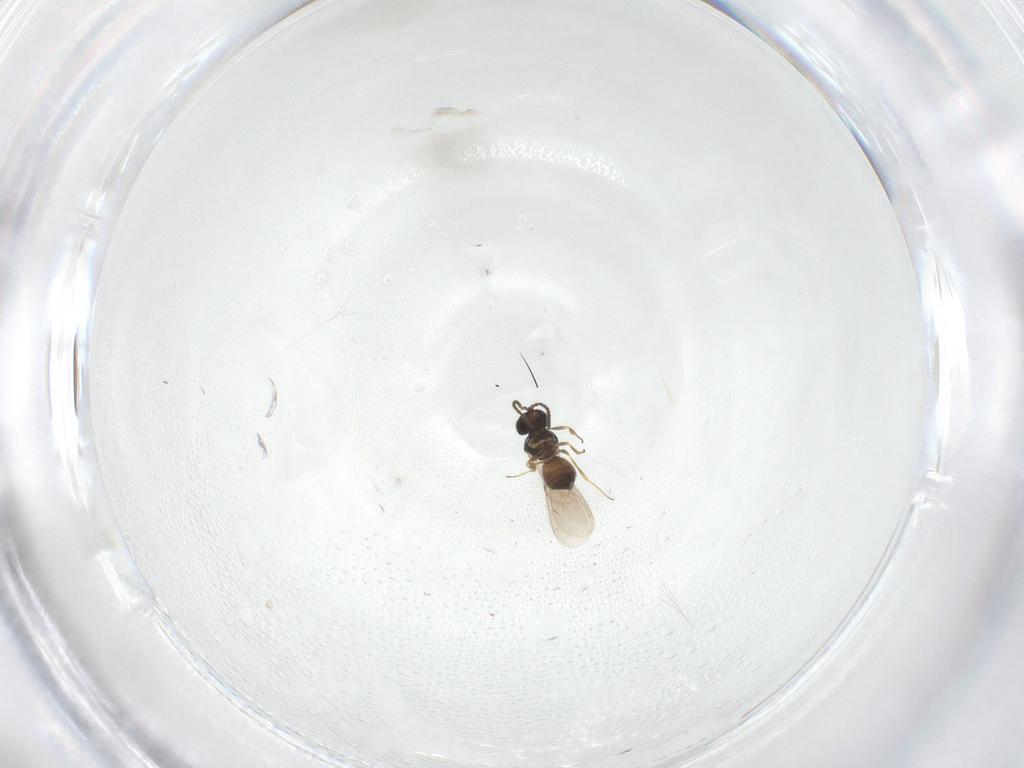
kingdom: Animalia
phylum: Arthropoda
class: Insecta
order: Hymenoptera
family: Scelionidae
